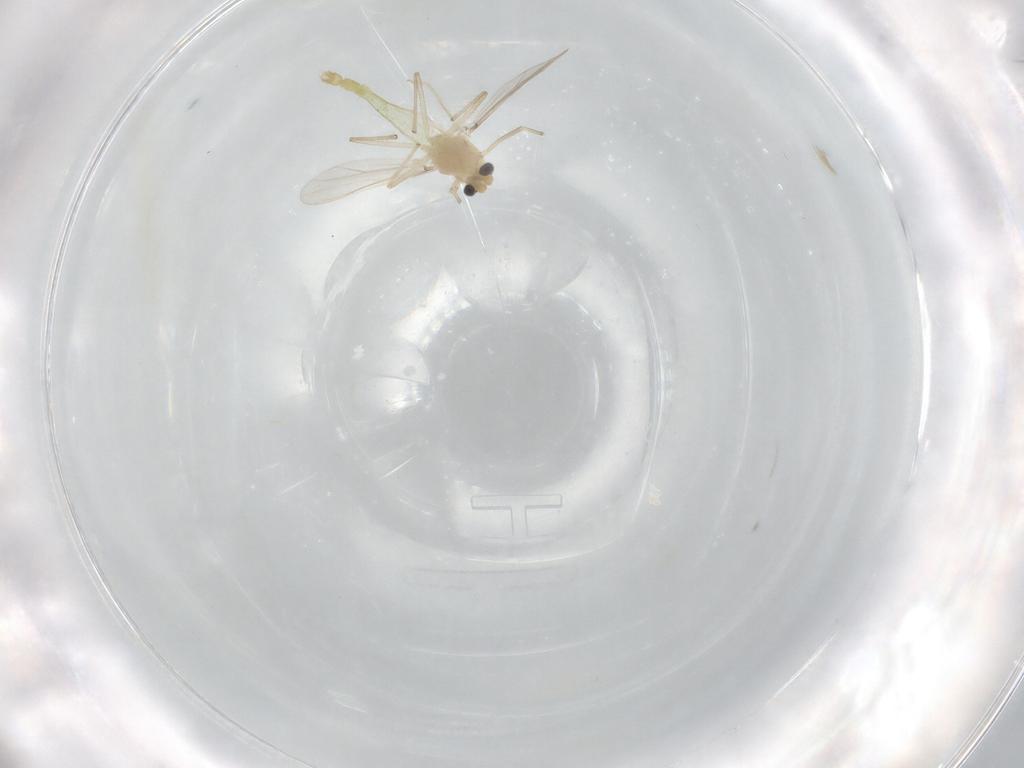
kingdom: Animalia
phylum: Arthropoda
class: Insecta
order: Diptera
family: Chironomidae
